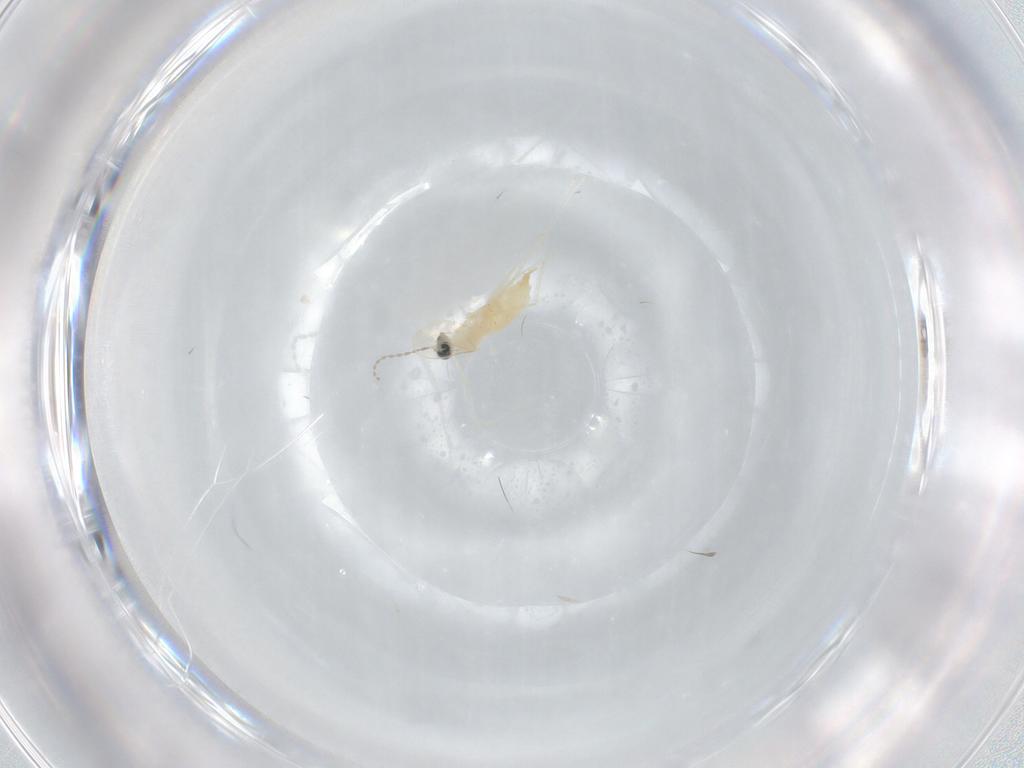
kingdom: Animalia
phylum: Arthropoda
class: Insecta
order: Diptera
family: Cecidomyiidae
